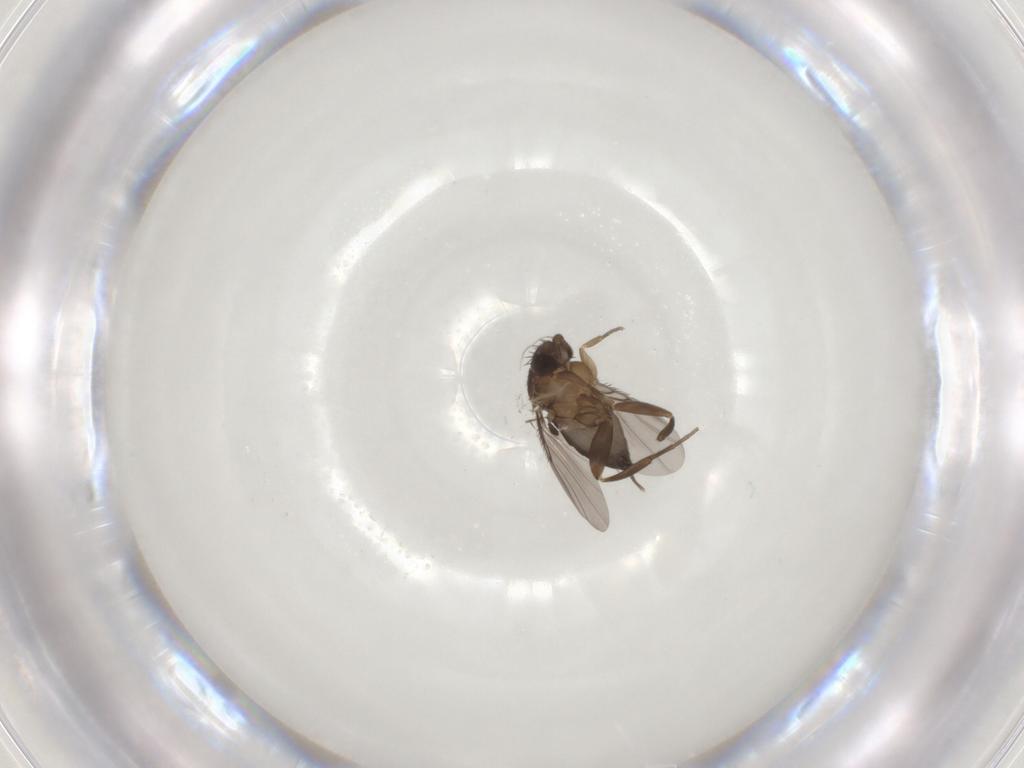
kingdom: Animalia
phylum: Arthropoda
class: Insecta
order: Diptera
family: Phoridae
